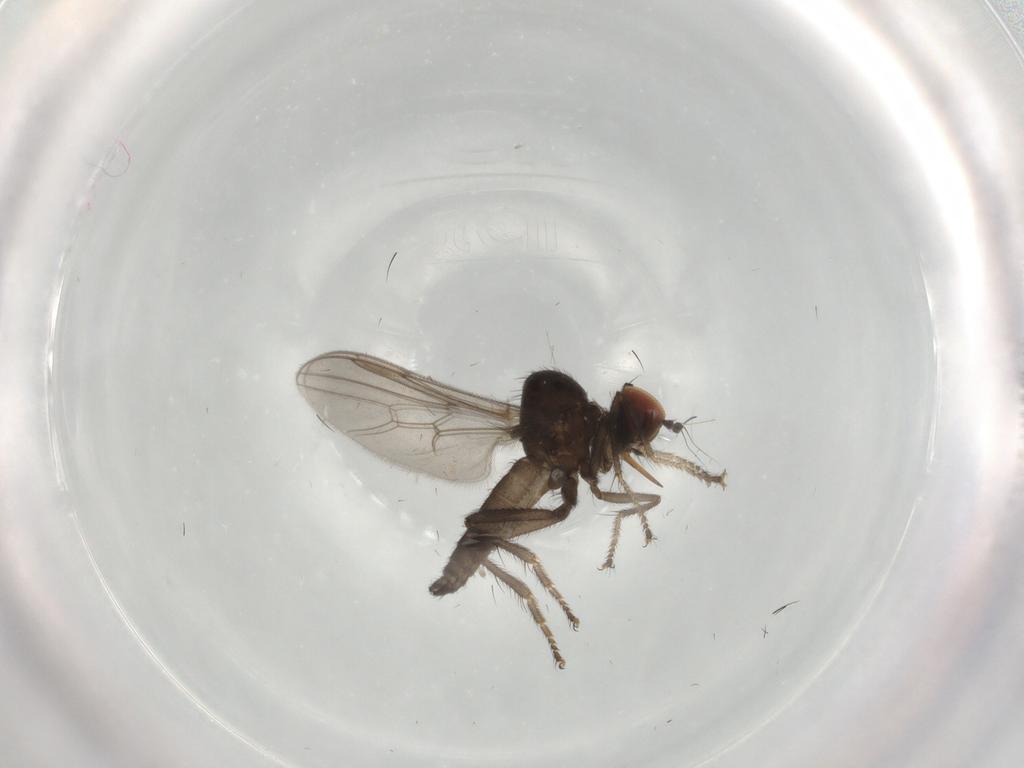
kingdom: Animalia
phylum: Arthropoda
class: Insecta
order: Diptera
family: Hybotidae
